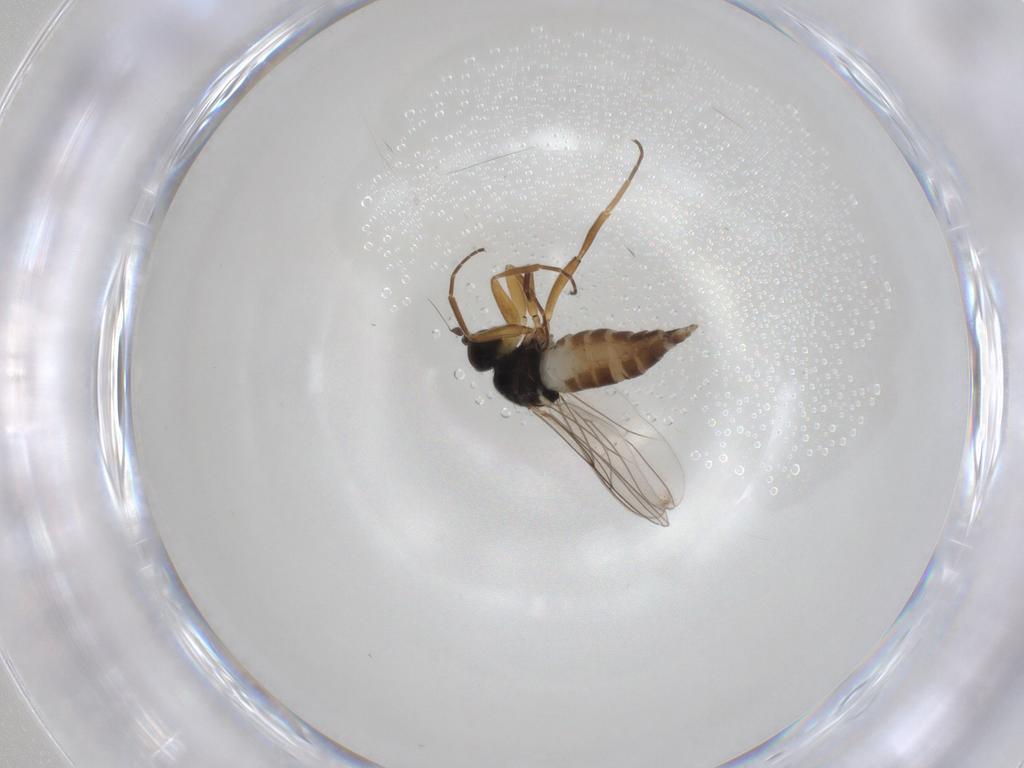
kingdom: Animalia
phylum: Arthropoda
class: Insecta
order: Diptera
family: Hybotidae
